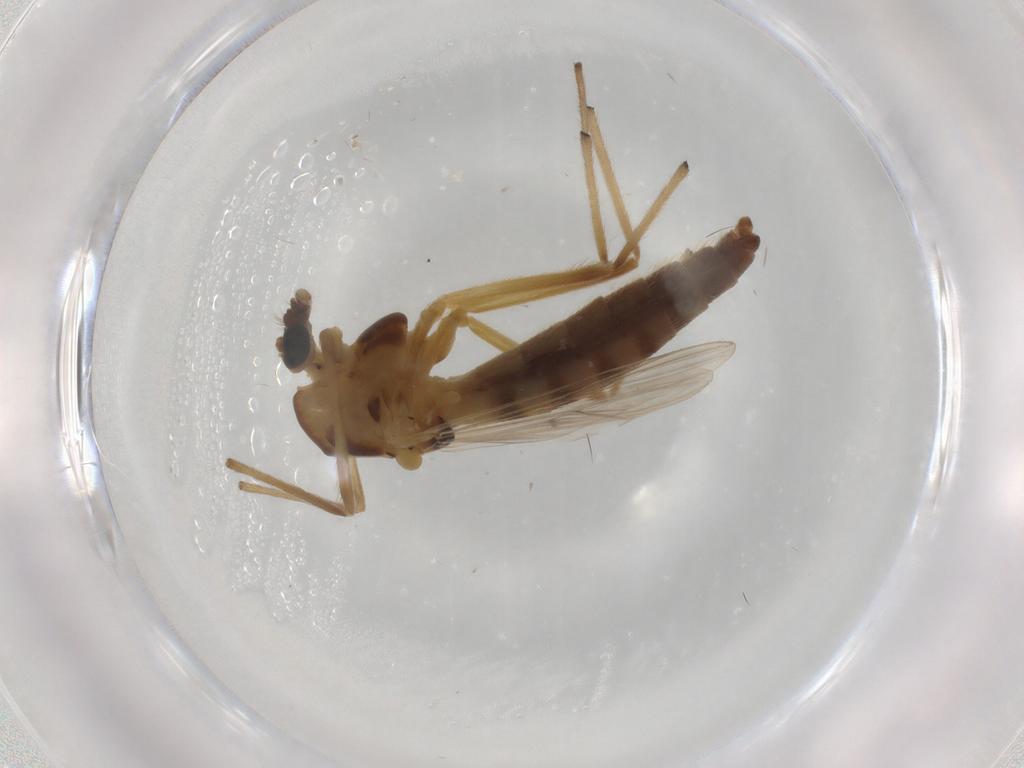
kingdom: Animalia
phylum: Arthropoda
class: Insecta
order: Diptera
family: Chironomidae
